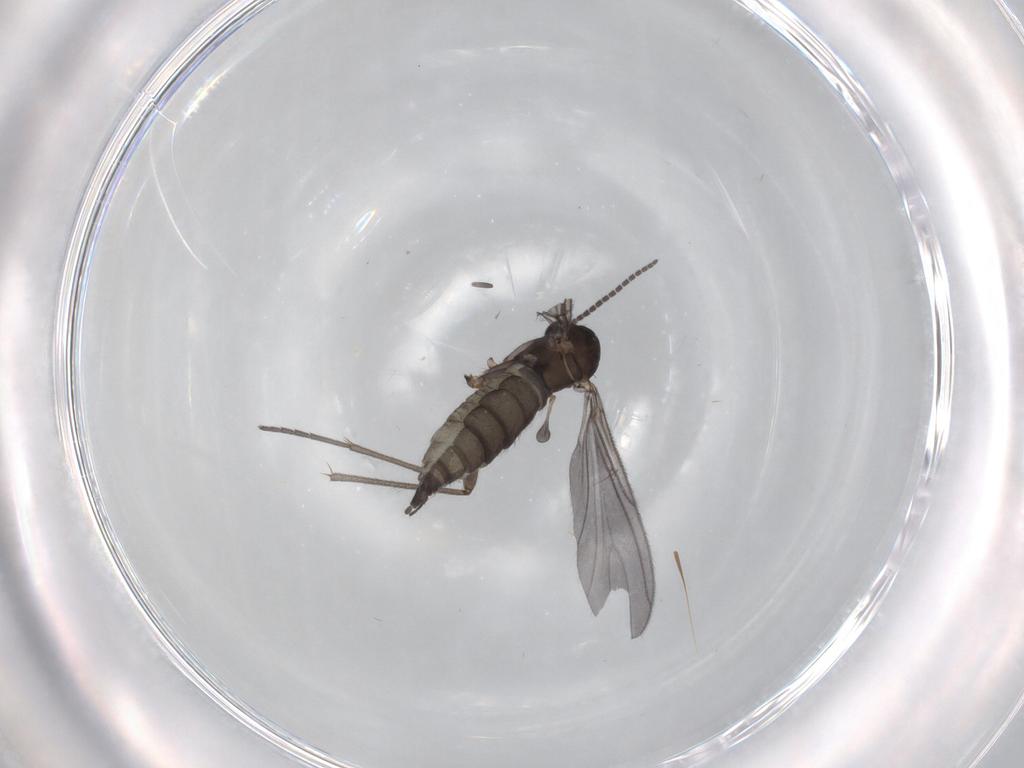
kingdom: Animalia
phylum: Arthropoda
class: Insecta
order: Diptera
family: Sciaridae
